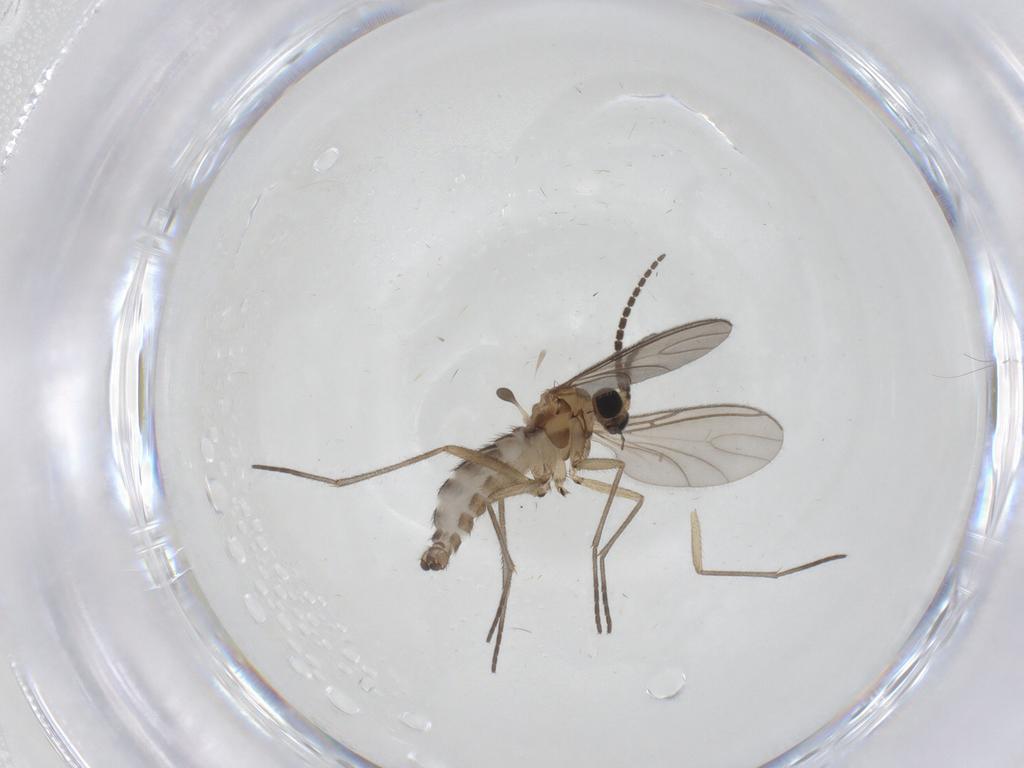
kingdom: Animalia
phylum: Arthropoda
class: Insecta
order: Diptera
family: Sciaridae
